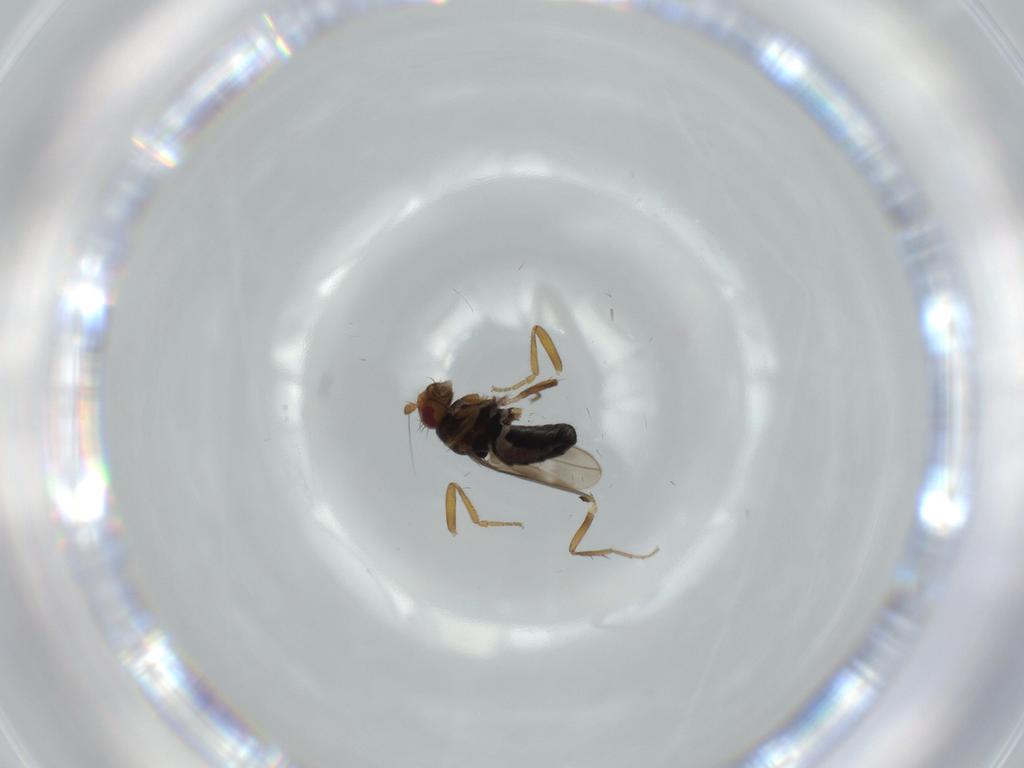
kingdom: Animalia
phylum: Arthropoda
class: Insecta
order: Diptera
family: Sphaeroceridae
